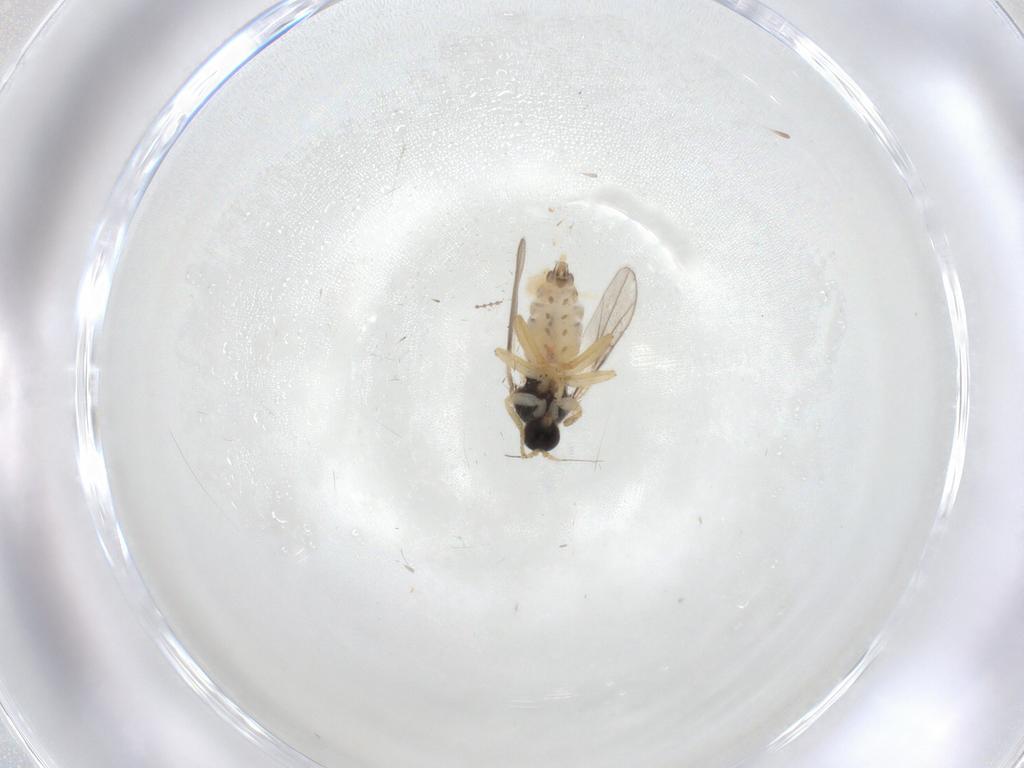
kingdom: Animalia
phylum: Arthropoda
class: Insecta
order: Diptera
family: Hybotidae
